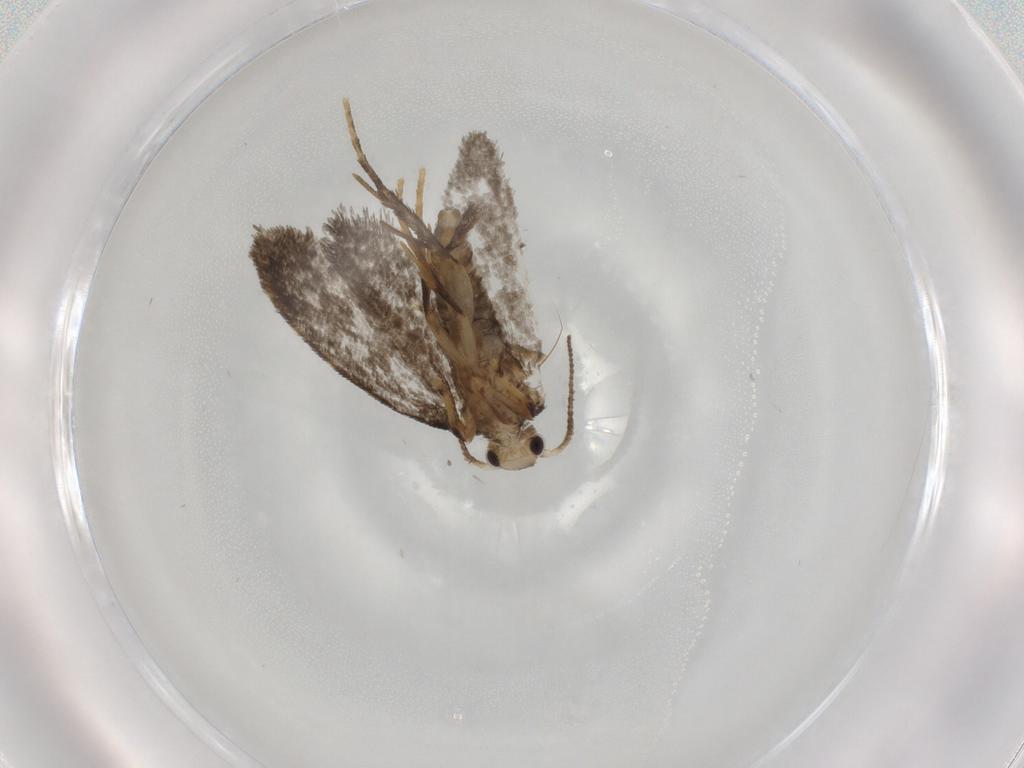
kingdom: Animalia
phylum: Arthropoda
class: Insecta
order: Lepidoptera
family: Psychidae
